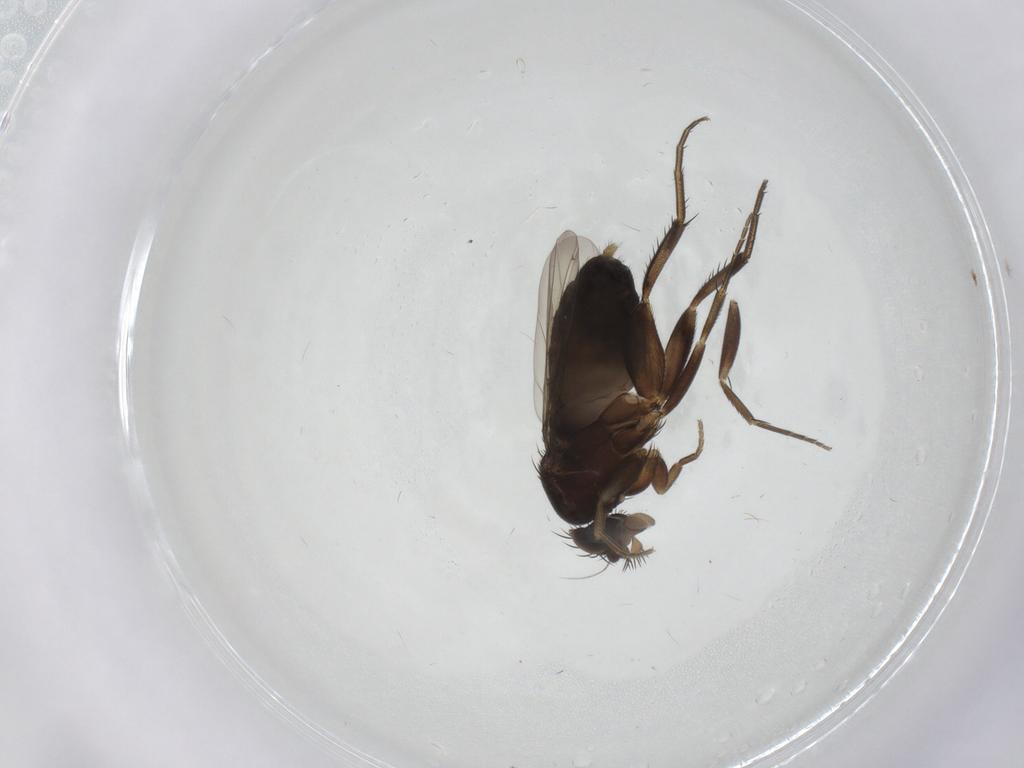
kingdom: Animalia
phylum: Arthropoda
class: Insecta
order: Diptera
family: Phoridae
